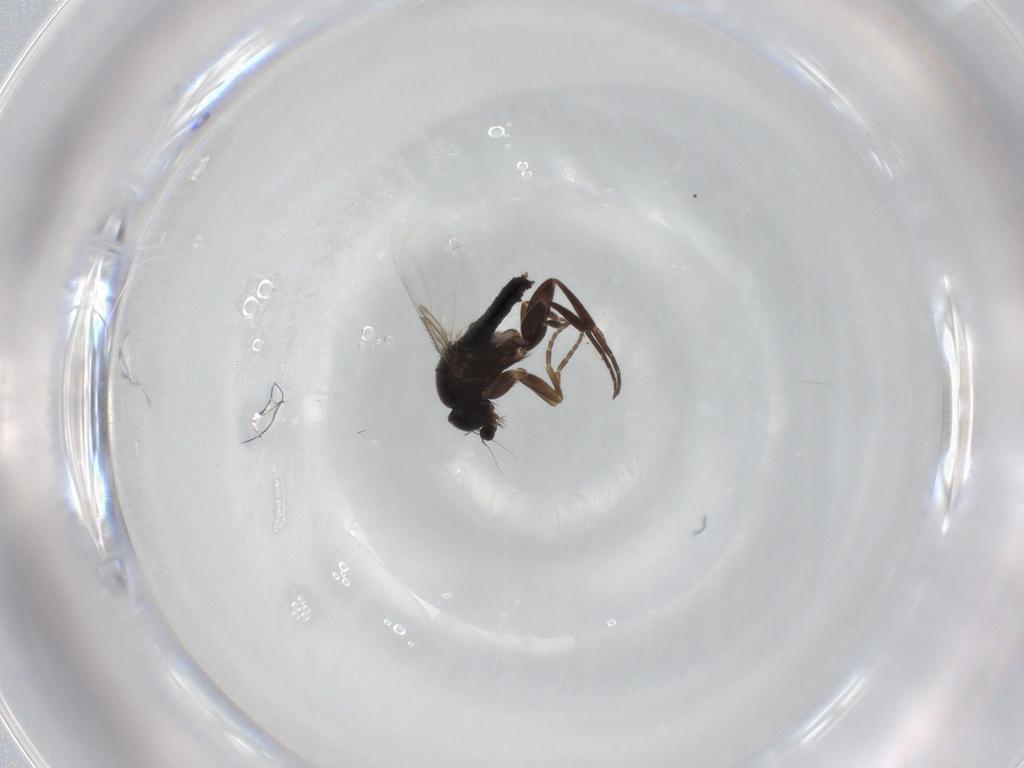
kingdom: Animalia
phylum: Arthropoda
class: Insecta
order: Diptera
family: Phoridae
